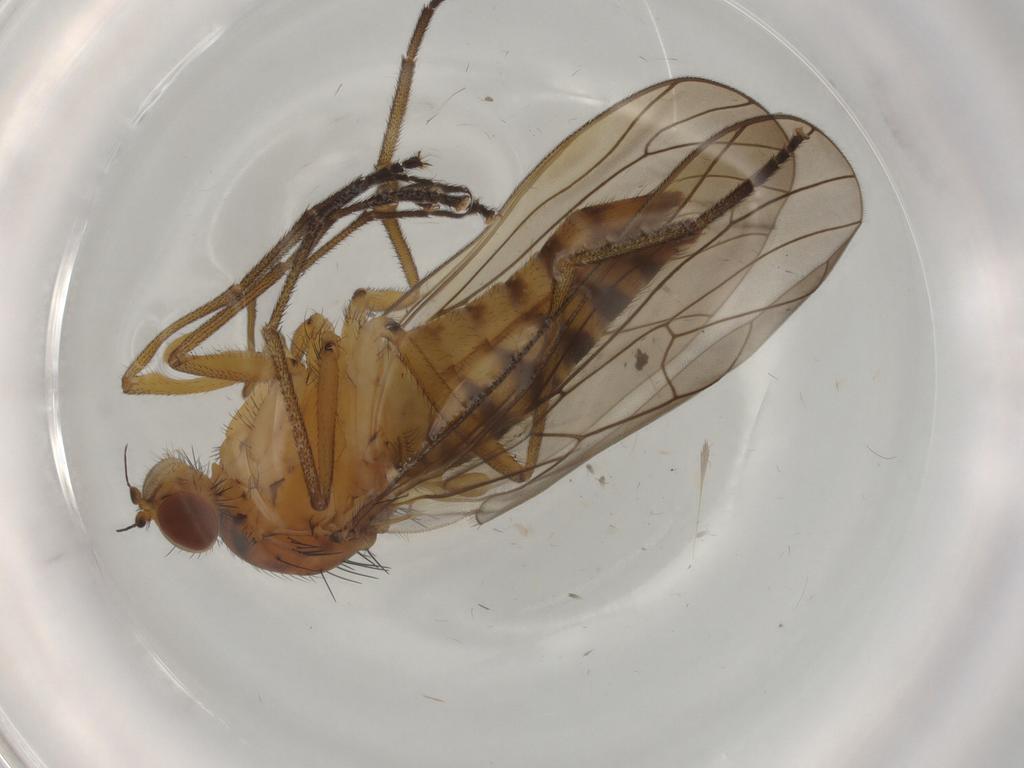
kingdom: Animalia
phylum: Arthropoda
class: Insecta
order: Diptera
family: Brachystomatidae
